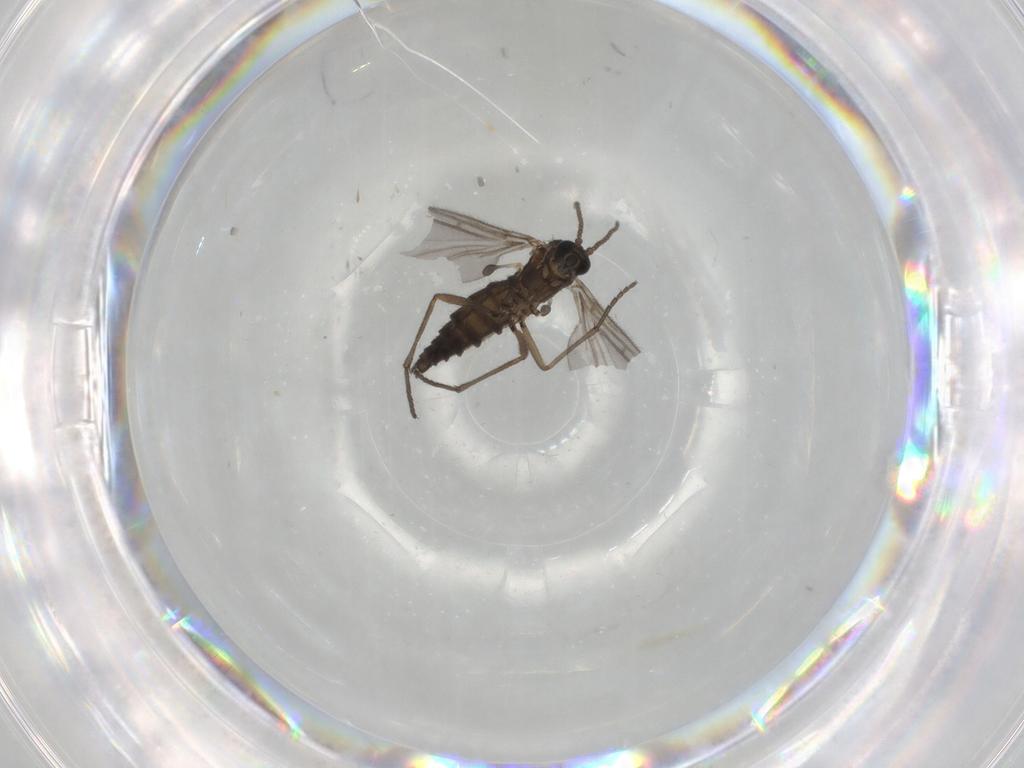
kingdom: Animalia
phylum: Arthropoda
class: Insecta
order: Diptera
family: Sciaridae
